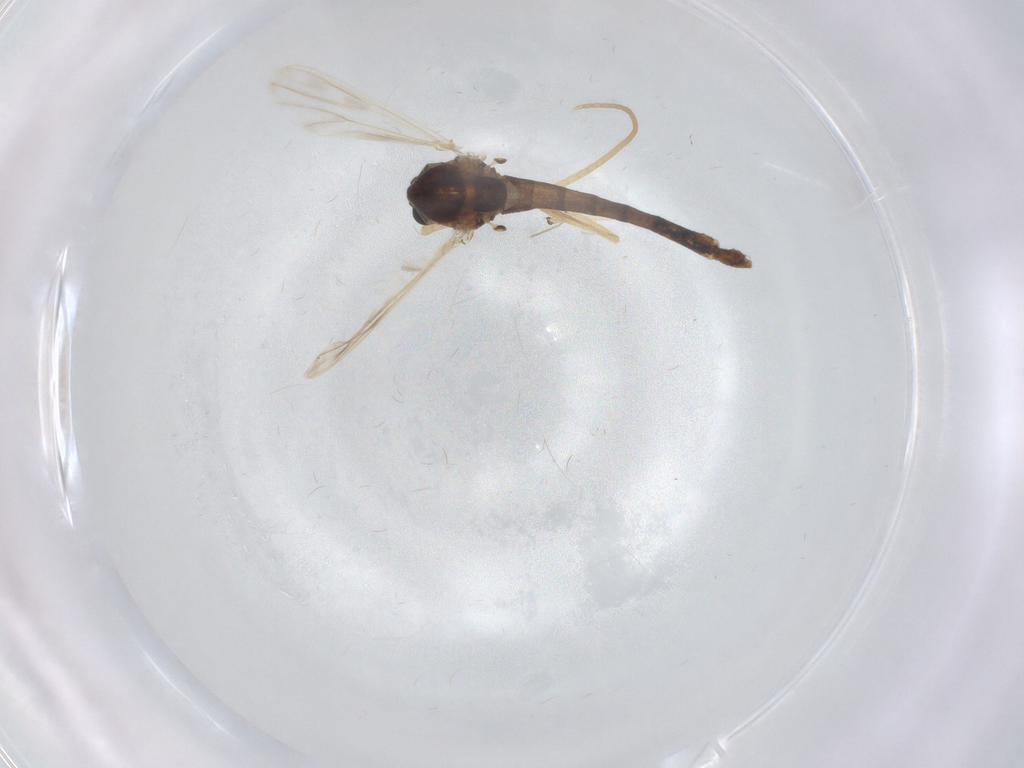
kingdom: Animalia
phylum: Arthropoda
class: Insecta
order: Diptera
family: Chironomidae
